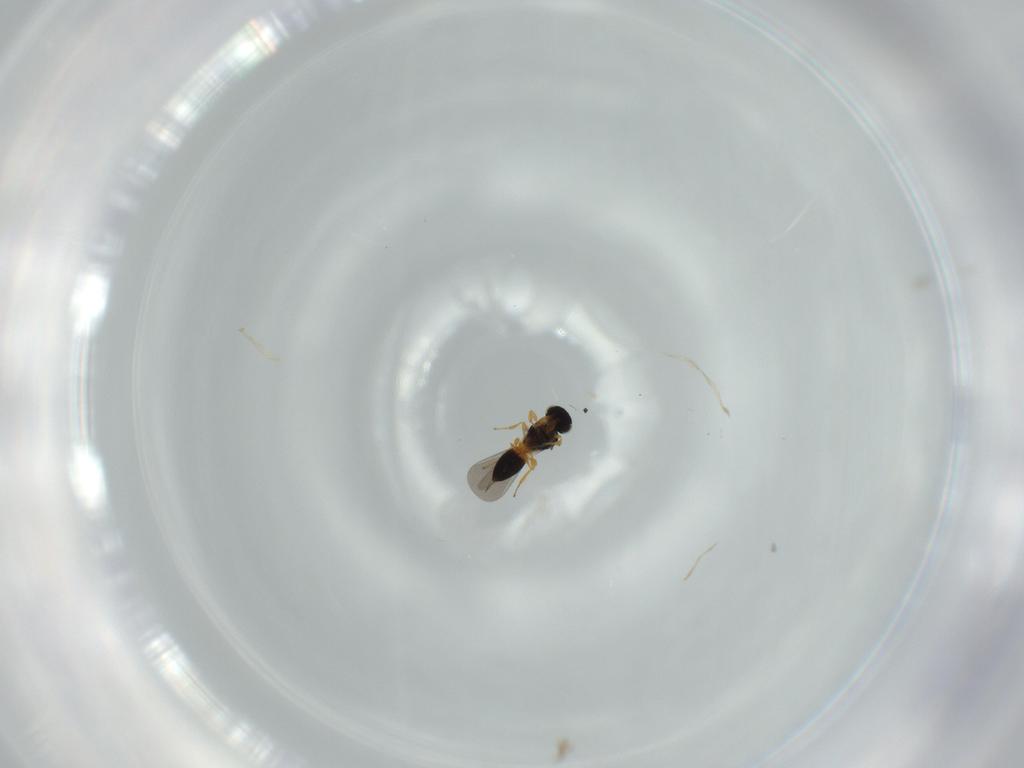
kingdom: Animalia
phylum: Arthropoda
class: Insecta
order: Hymenoptera
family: Platygastridae
